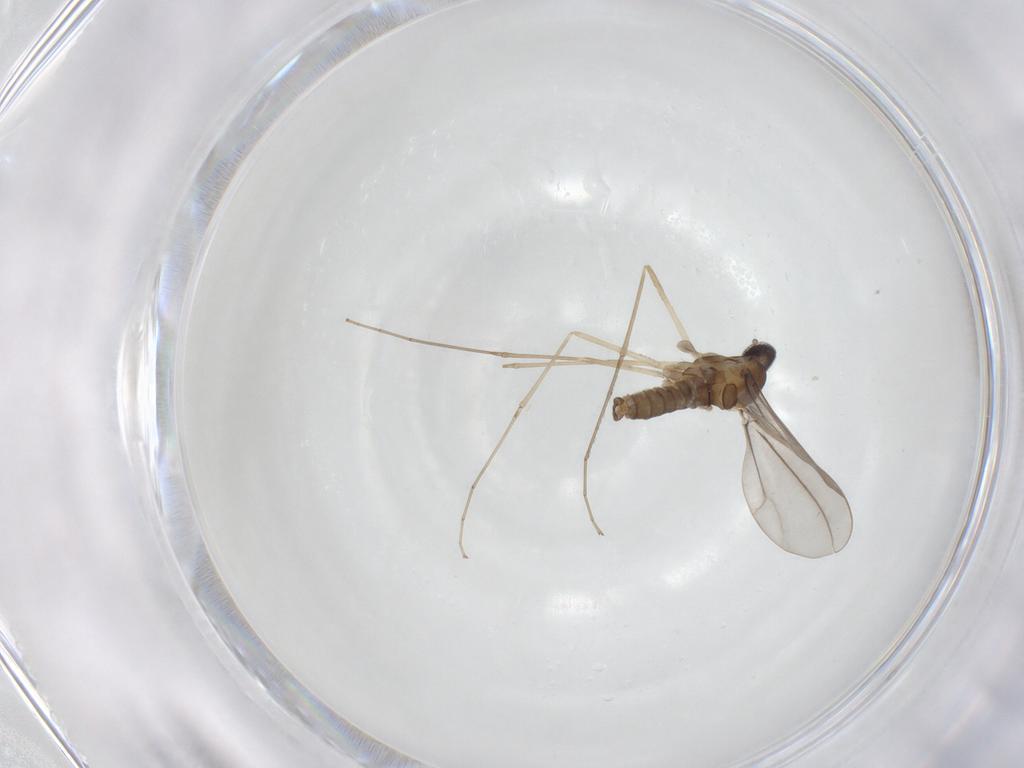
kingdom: Animalia
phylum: Arthropoda
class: Insecta
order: Diptera
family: Cecidomyiidae
